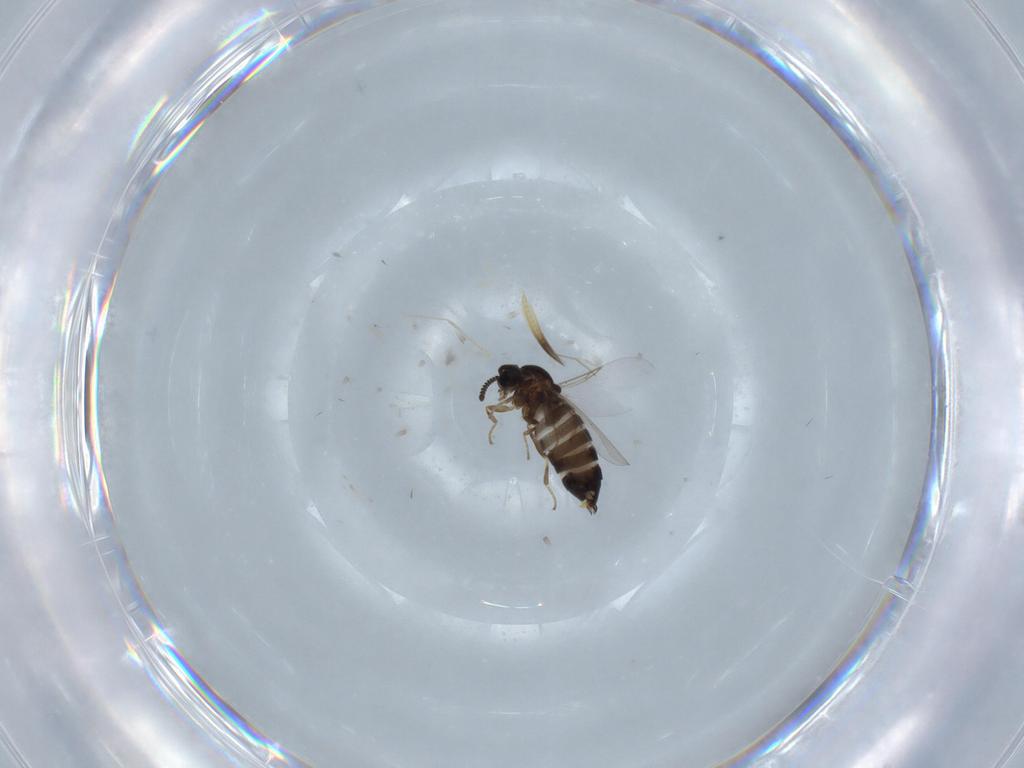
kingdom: Animalia
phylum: Arthropoda
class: Insecta
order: Diptera
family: Scatopsidae
